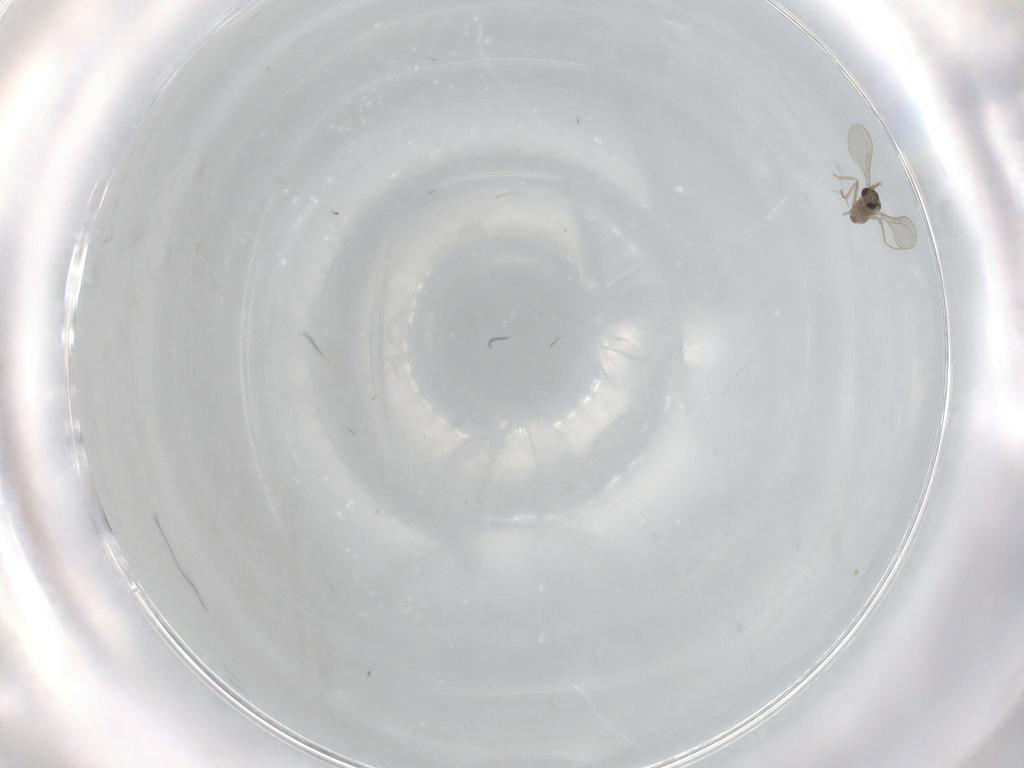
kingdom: Animalia
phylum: Arthropoda
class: Insecta
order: Diptera
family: Cecidomyiidae
